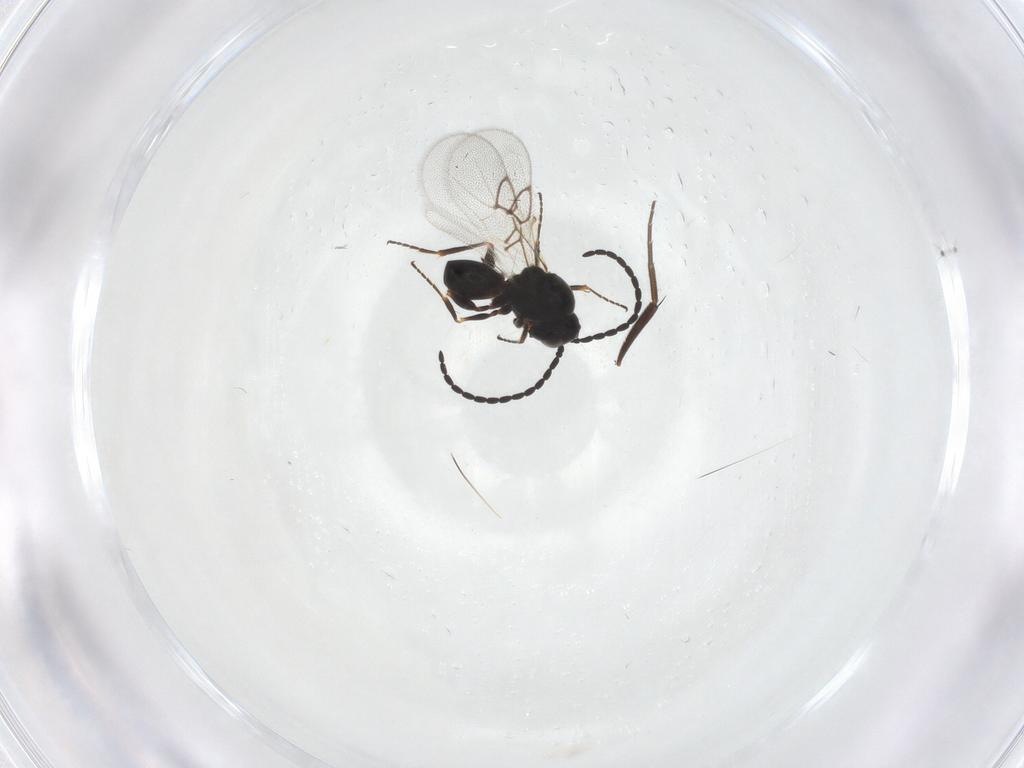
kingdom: Animalia
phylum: Arthropoda
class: Insecta
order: Hymenoptera
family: Figitidae
